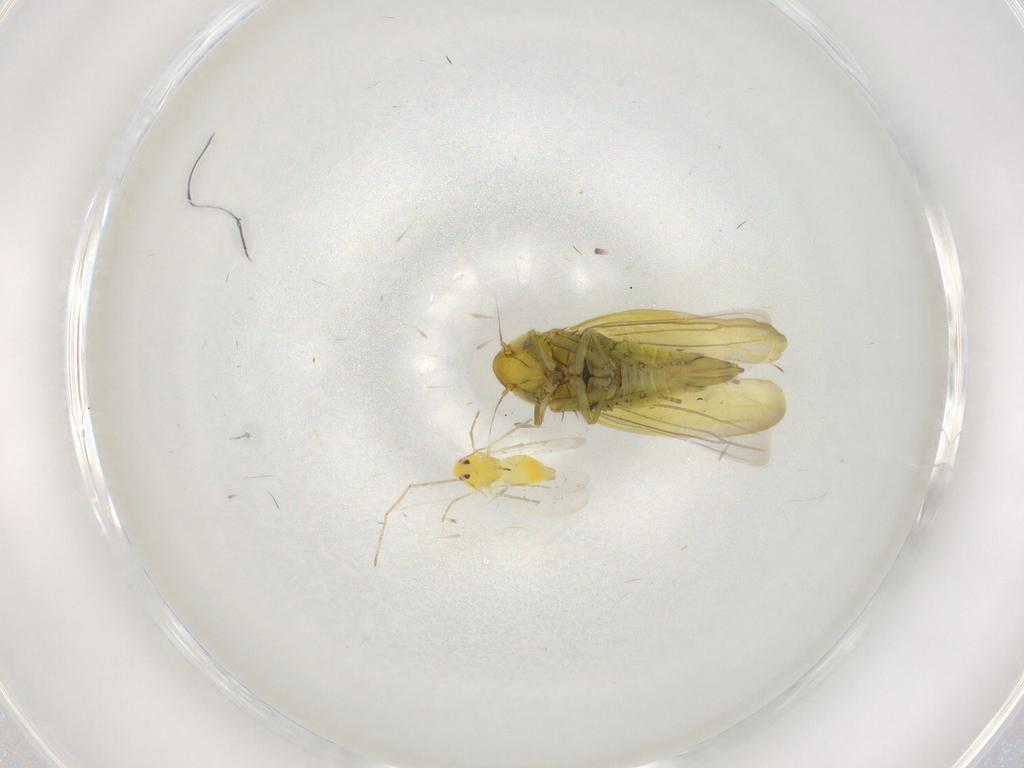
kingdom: Animalia
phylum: Arthropoda
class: Insecta
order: Hemiptera
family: Cicadellidae
